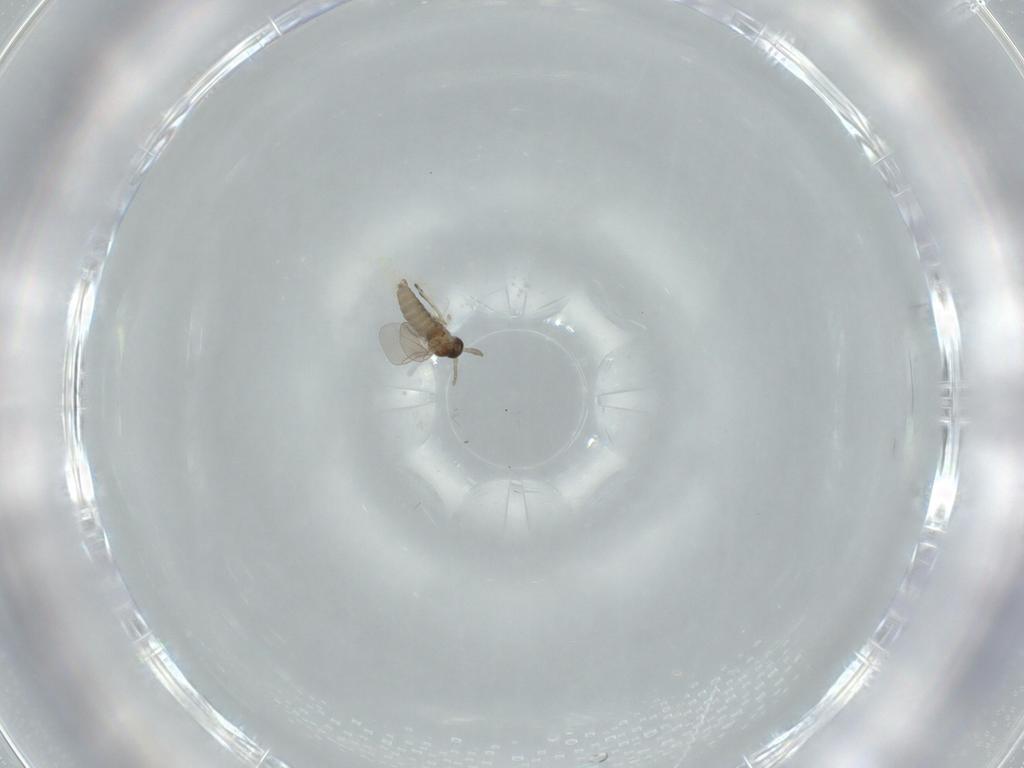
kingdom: Animalia
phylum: Arthropoda
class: Insecta
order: Diptera
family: Cecidomyiidae
